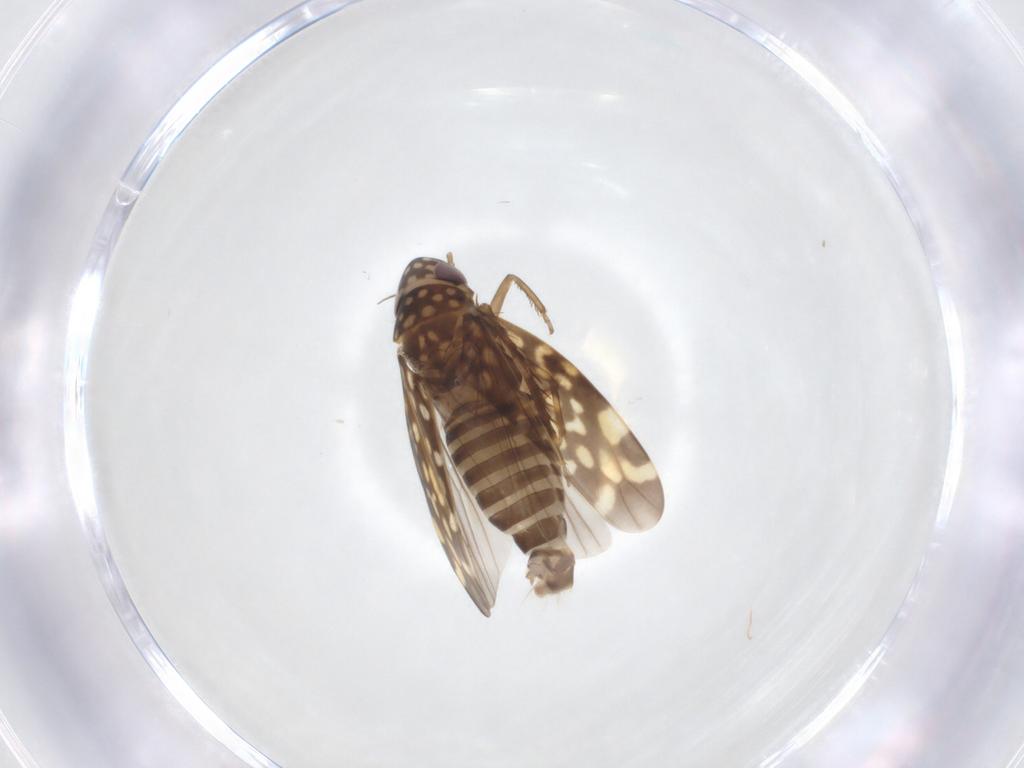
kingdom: Animalia
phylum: Arthropoda
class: Insecta
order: Hemiptera
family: Cicadellidae
